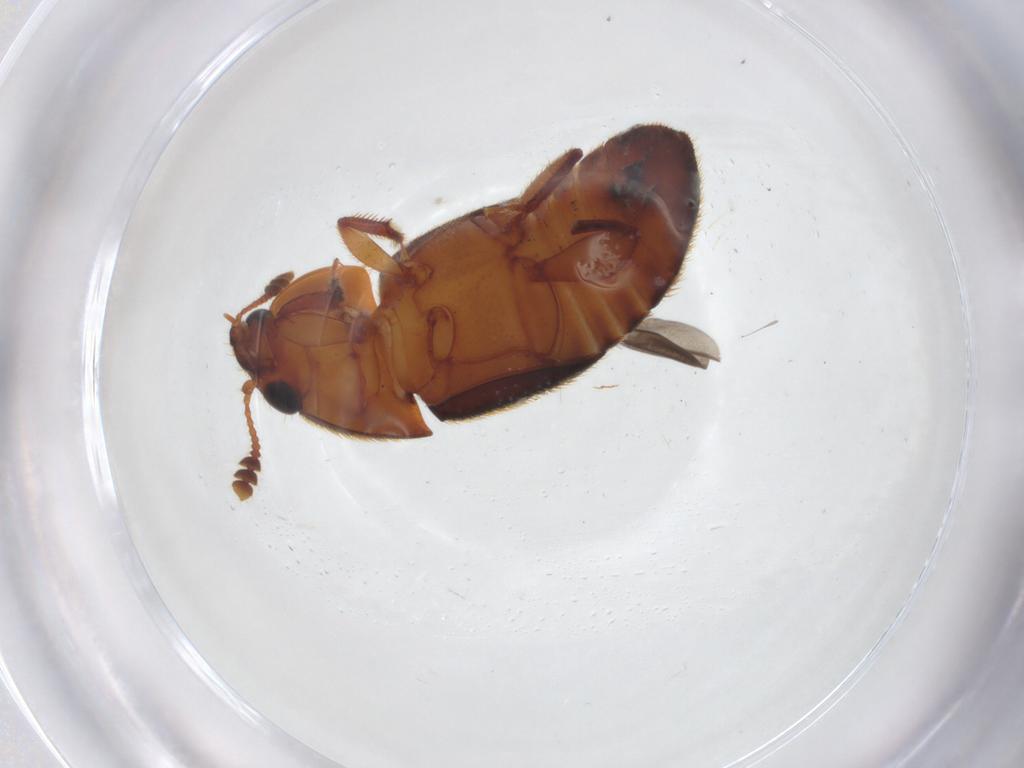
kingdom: Animalia
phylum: Arthropoda
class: Insecta
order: Coleoptera
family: Nitidulidae
